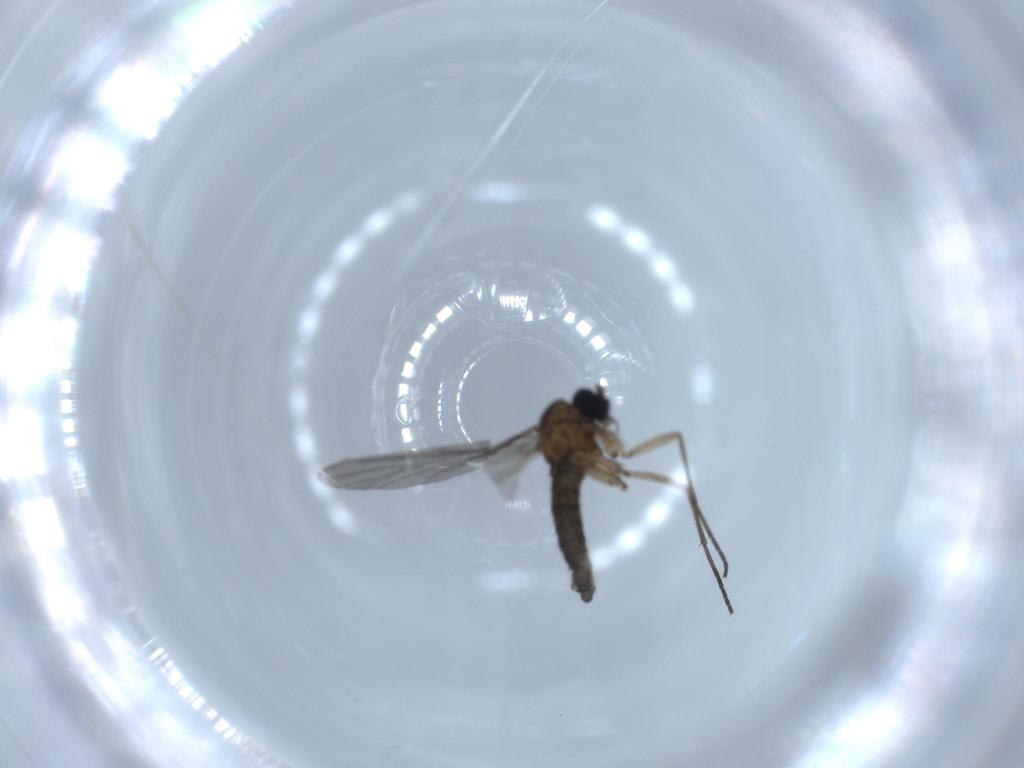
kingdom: Animalia
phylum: Arthropoda
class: Insecta
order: Diptera
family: Sciaridae
